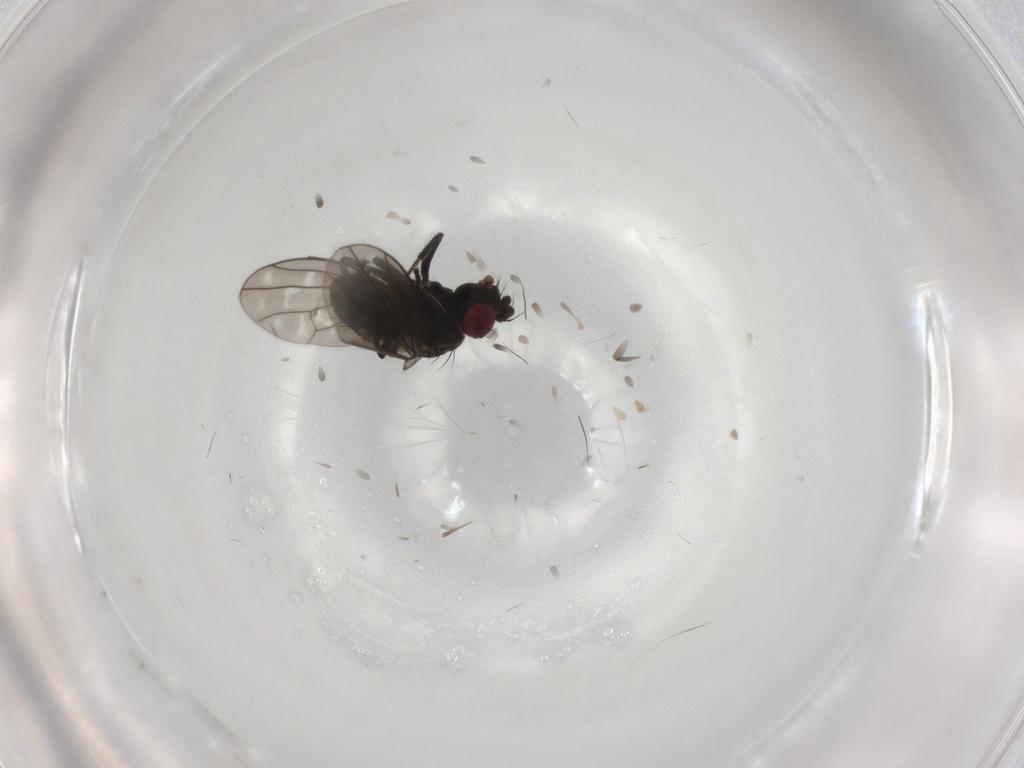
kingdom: Animalia
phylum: Arthropoda
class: Insecta
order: Diptera
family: Ephydridae
